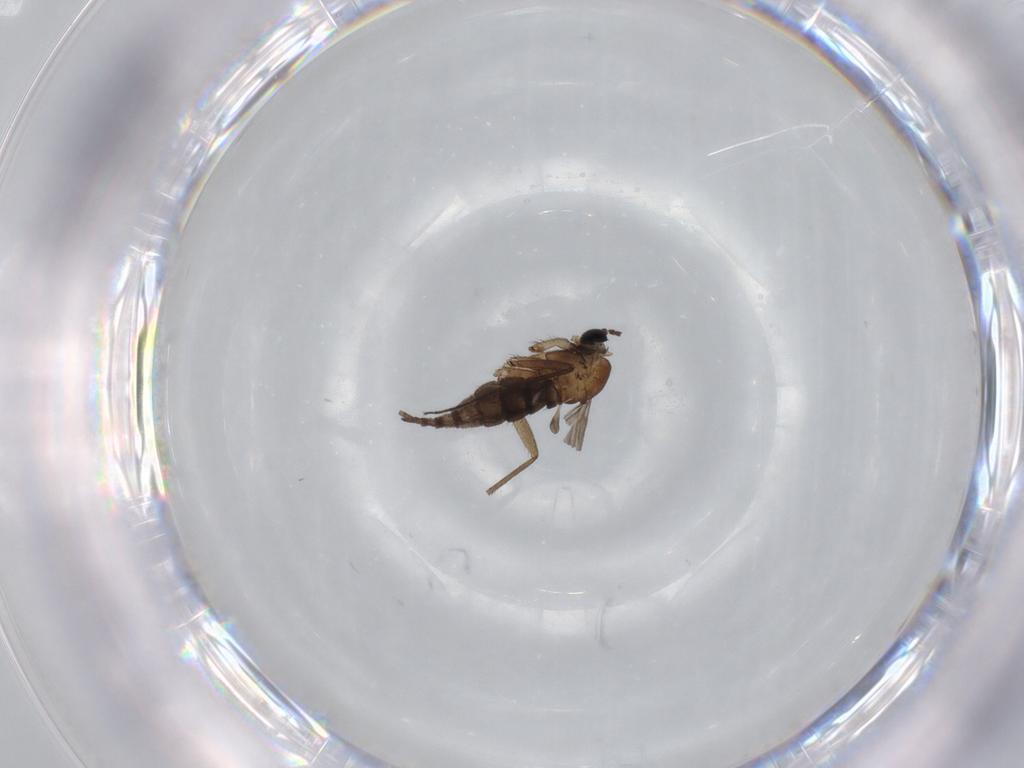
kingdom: Animalia
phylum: Arthropoda
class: Insecta
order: Diptera
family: Sciaridae
